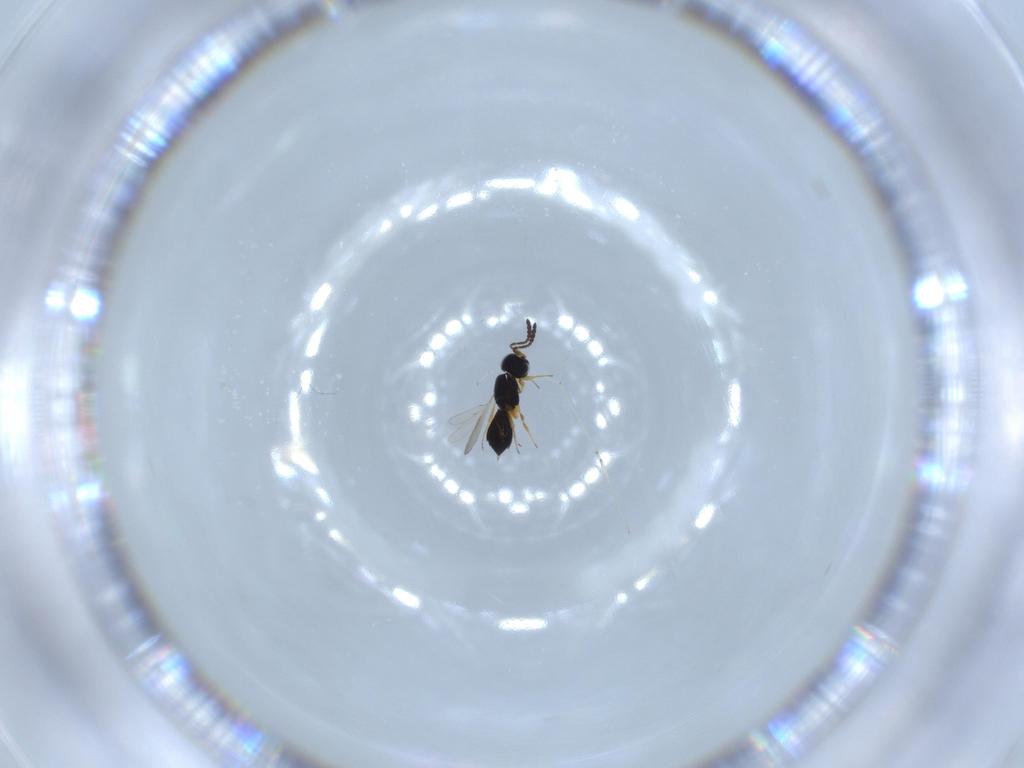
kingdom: Animalia
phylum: Arthropoda
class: Insecta
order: Hymenoptera
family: Scelionidae
